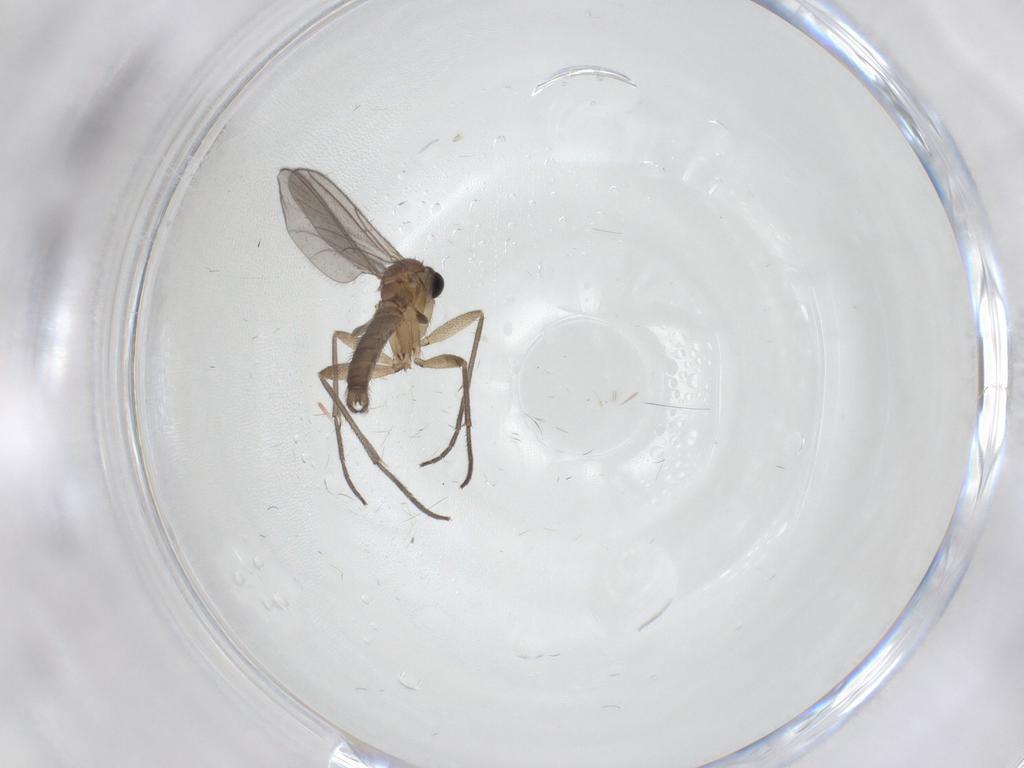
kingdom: Animalia
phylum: Arthropoda
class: Insecta
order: Diptera
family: Sciaridae
